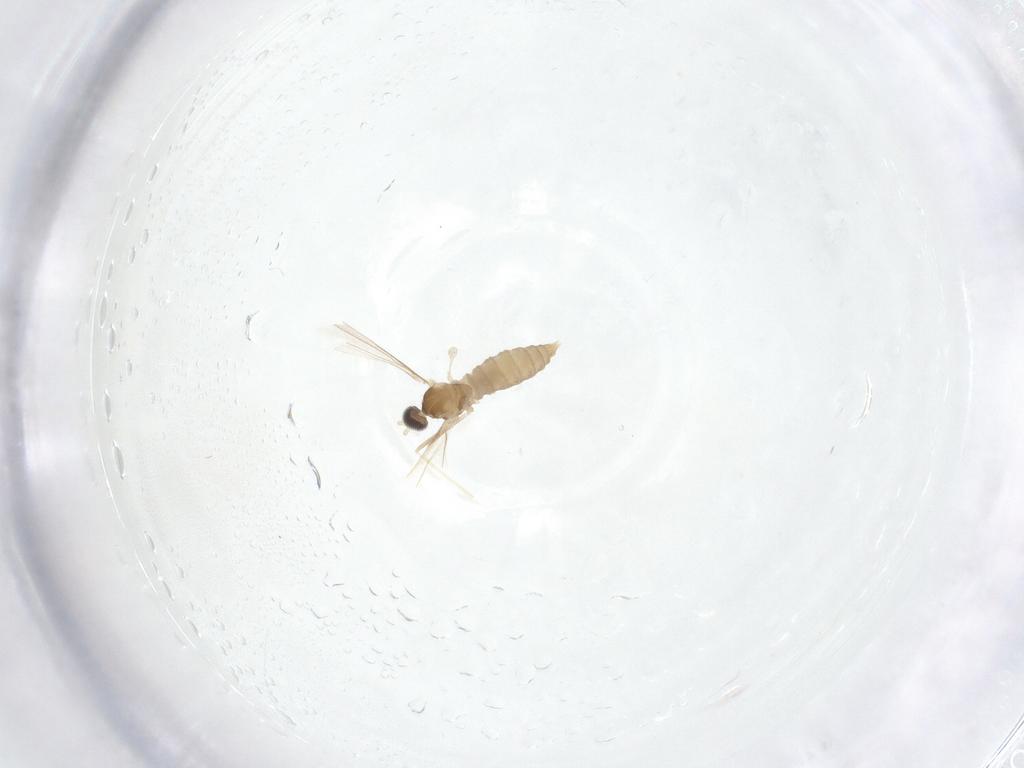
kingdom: Animalia
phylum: Arthropoda
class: Insecta
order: Diptera
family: Cecidomyiidae
